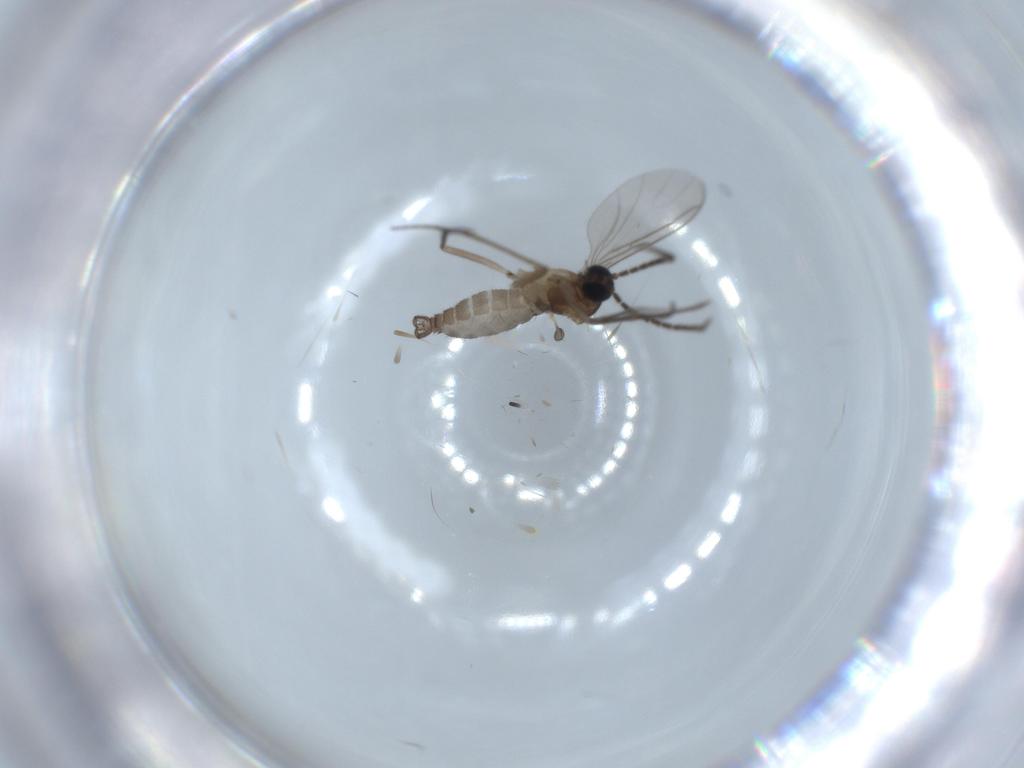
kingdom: Animalia
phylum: Arthropoda
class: Insecta
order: Diptera
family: Sciaridae
